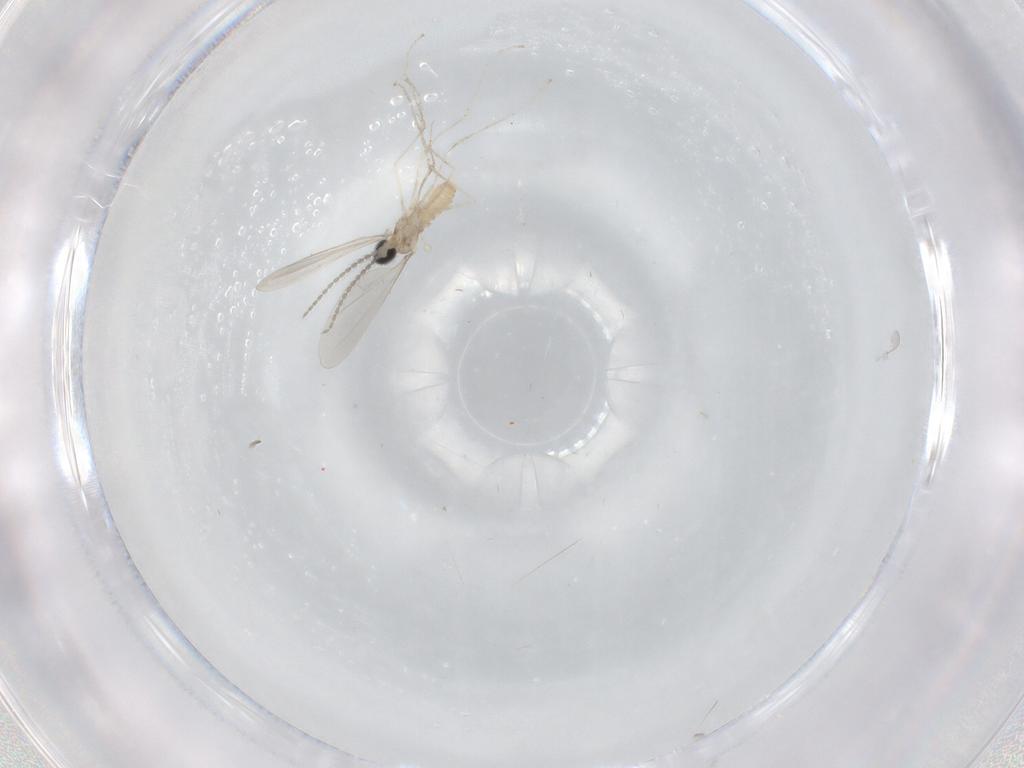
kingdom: Animalia
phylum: Arthropoda
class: Insecta
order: Diptera
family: Cecidomyiidae
